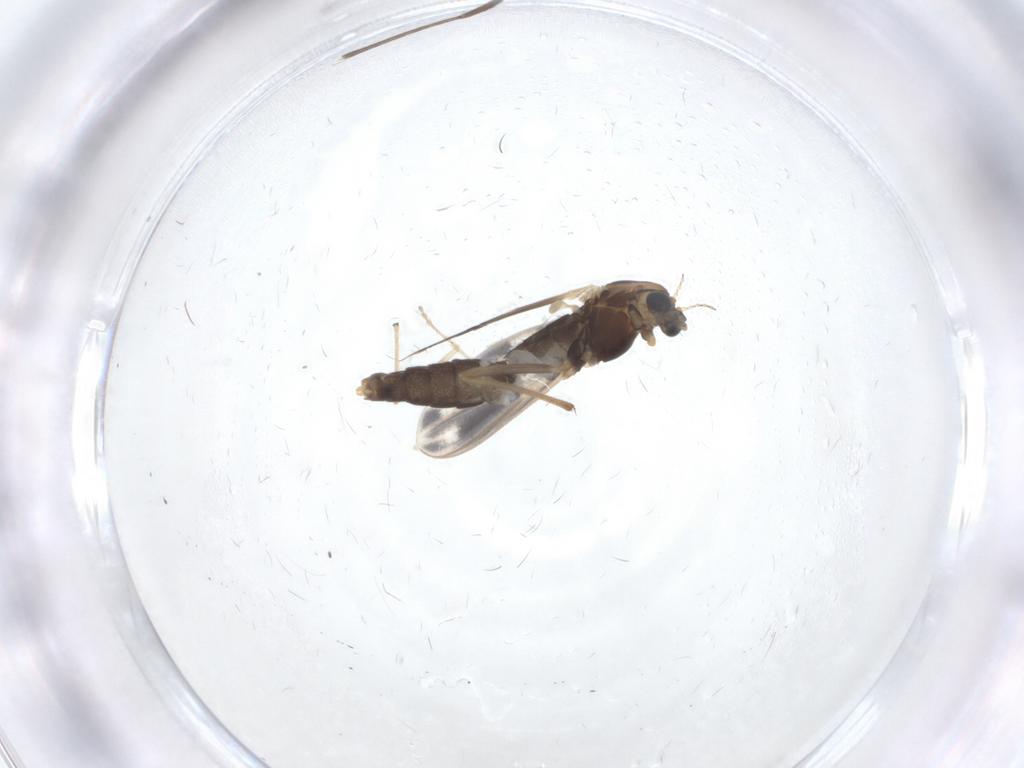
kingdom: Animalia
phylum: Arthropoda
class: Insecta
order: Diptera
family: Chironomidae
